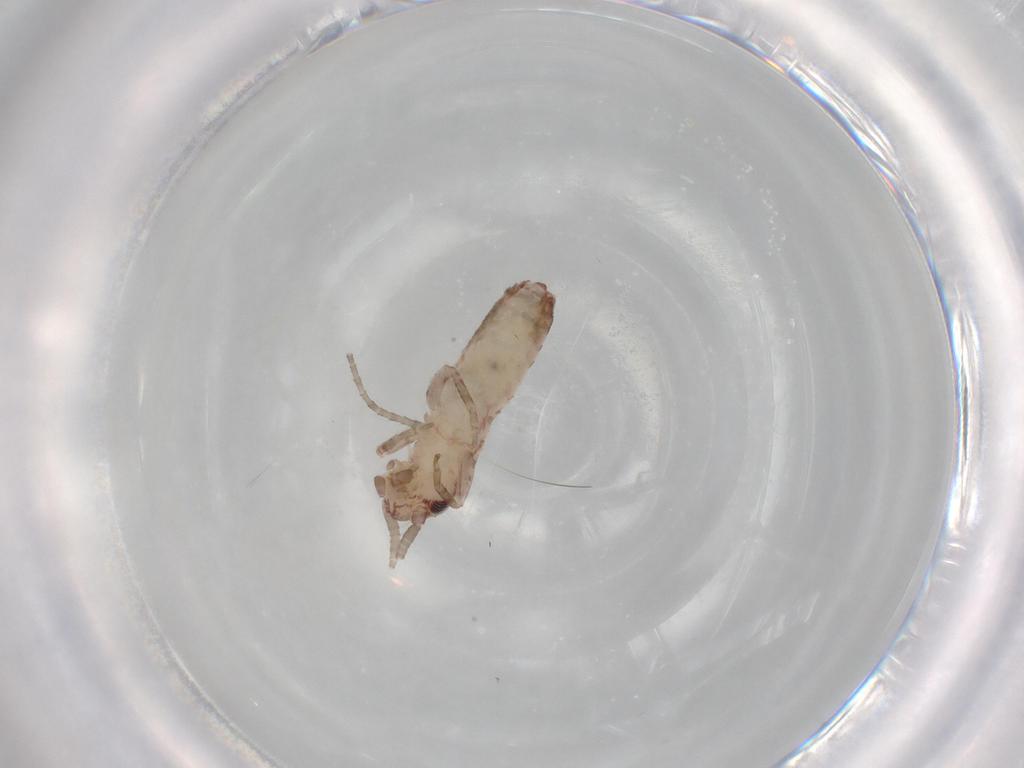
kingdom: Animalia
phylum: Arthropoda
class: Insecta
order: Orthoptera
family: Mogoplistidae
